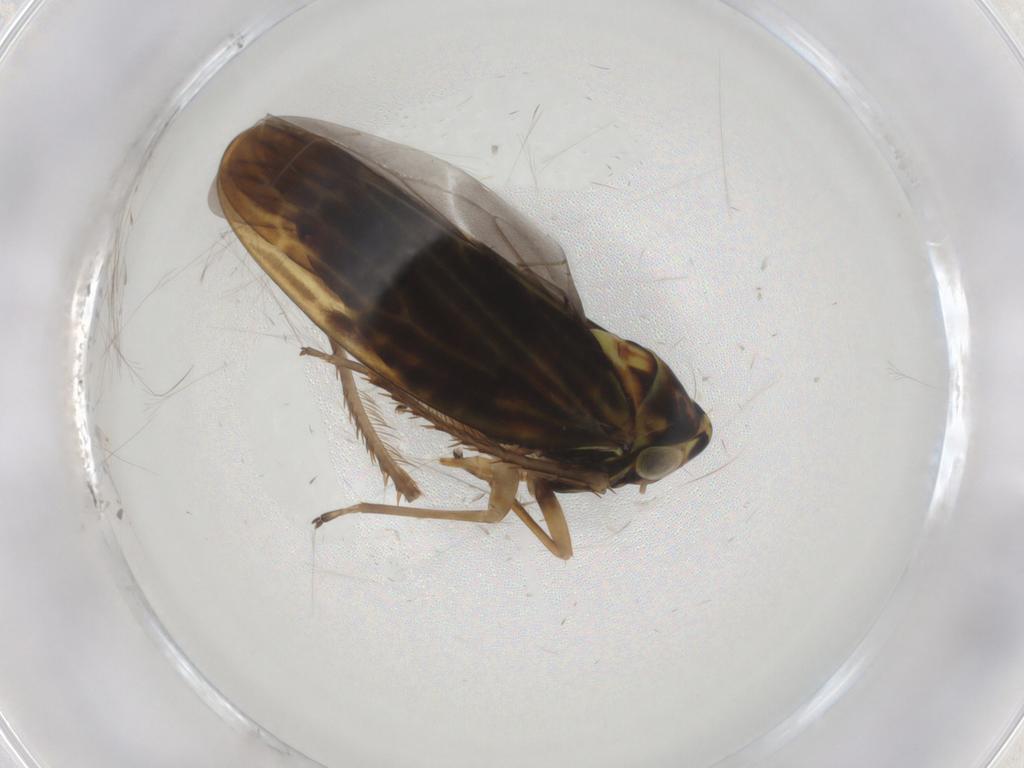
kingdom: Animalia
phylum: Arthropoda
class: Insecta
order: Hemiptera
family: Cicadellidae
